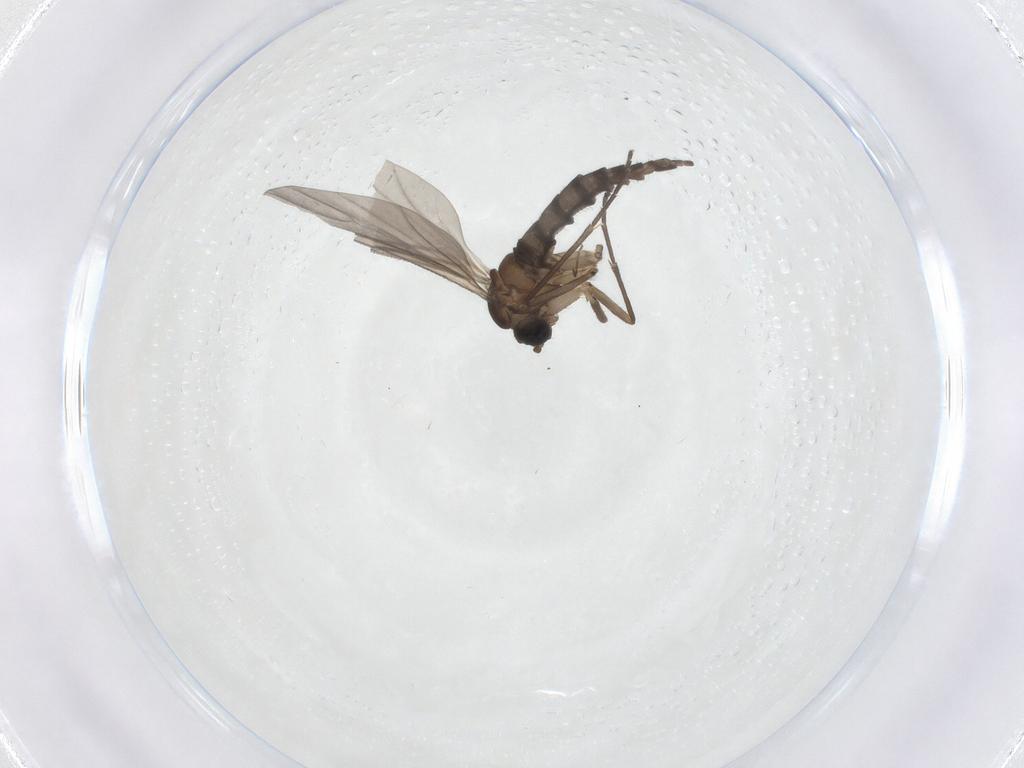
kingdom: Animalia
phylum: Arthropoda
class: Insecta
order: Diptera
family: Sciaridae
